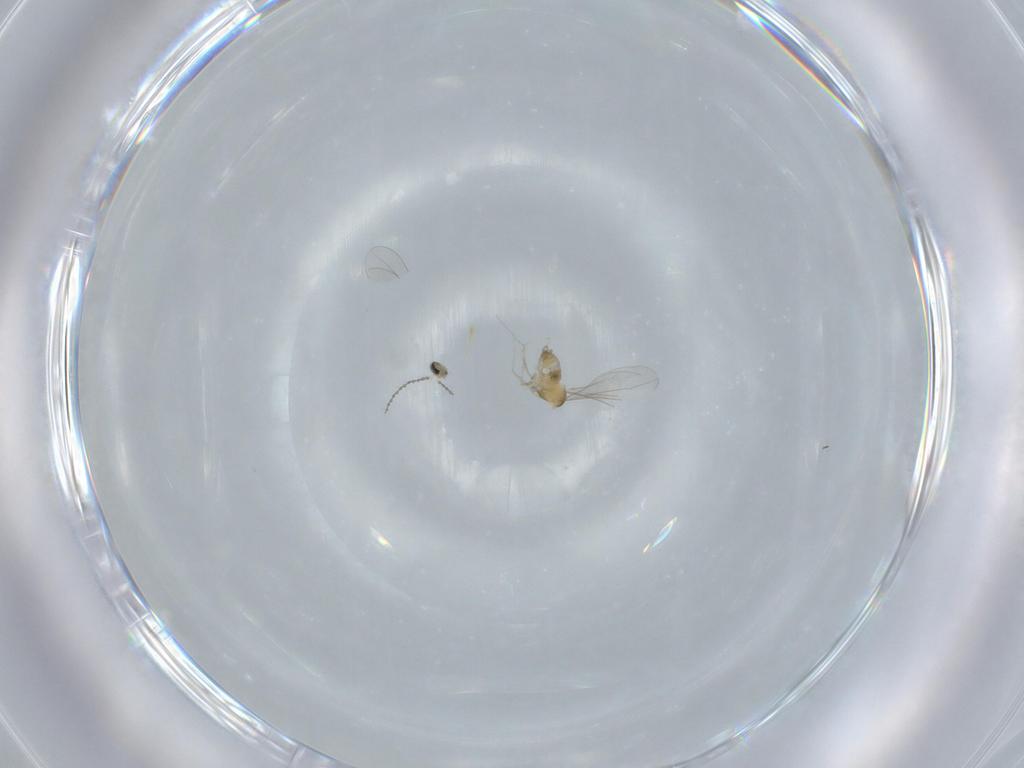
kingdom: Animalia
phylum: Arthropoda
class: Insecta
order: Diptera
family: Cecidomyiidae
